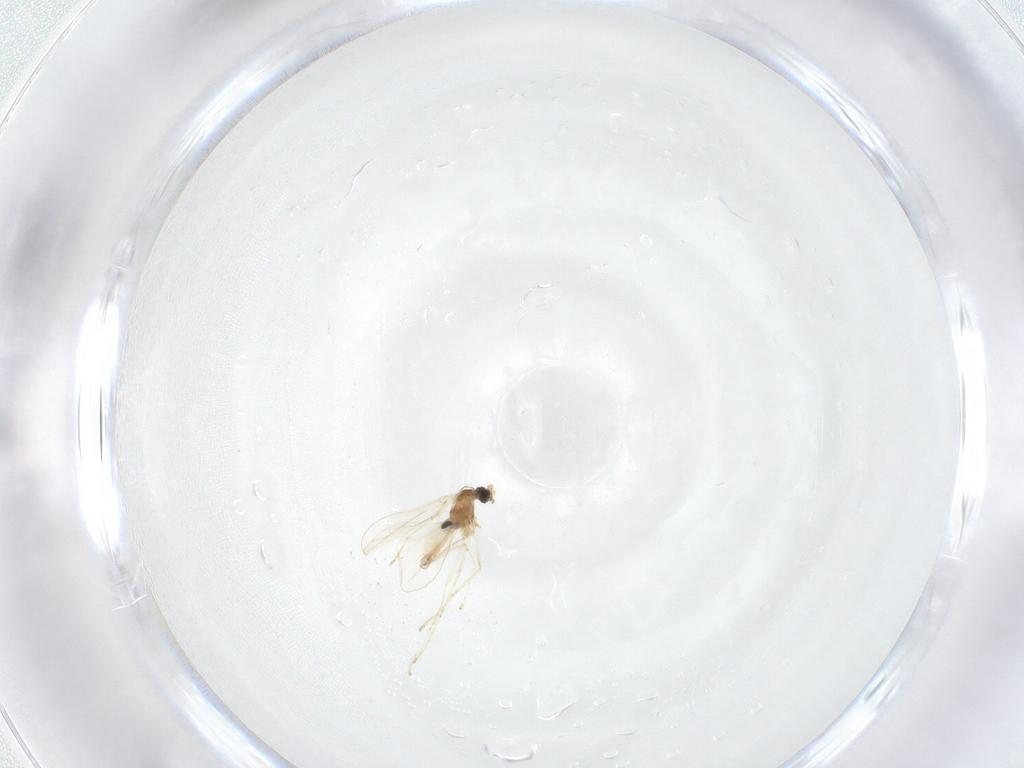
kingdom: Animalia
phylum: Arthropoda
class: Insecta
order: Diptera
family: Cecidomyiidae
